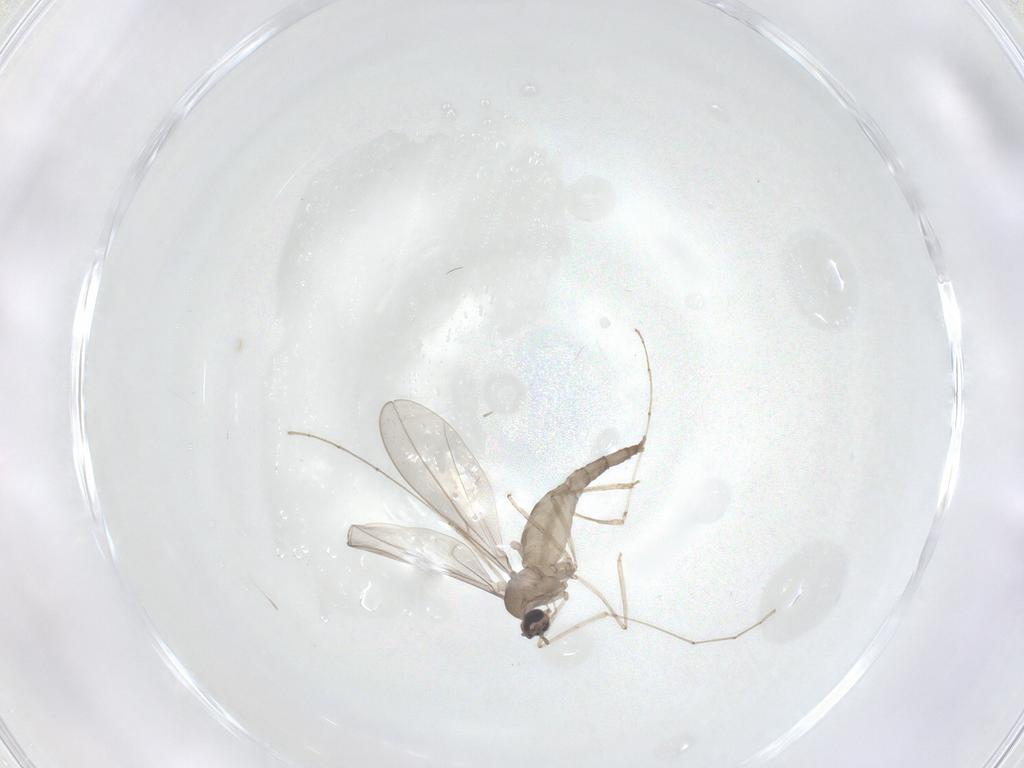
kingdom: Animalia
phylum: Arthropoda
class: Insecta
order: Diptera
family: Cecidomyiidae
